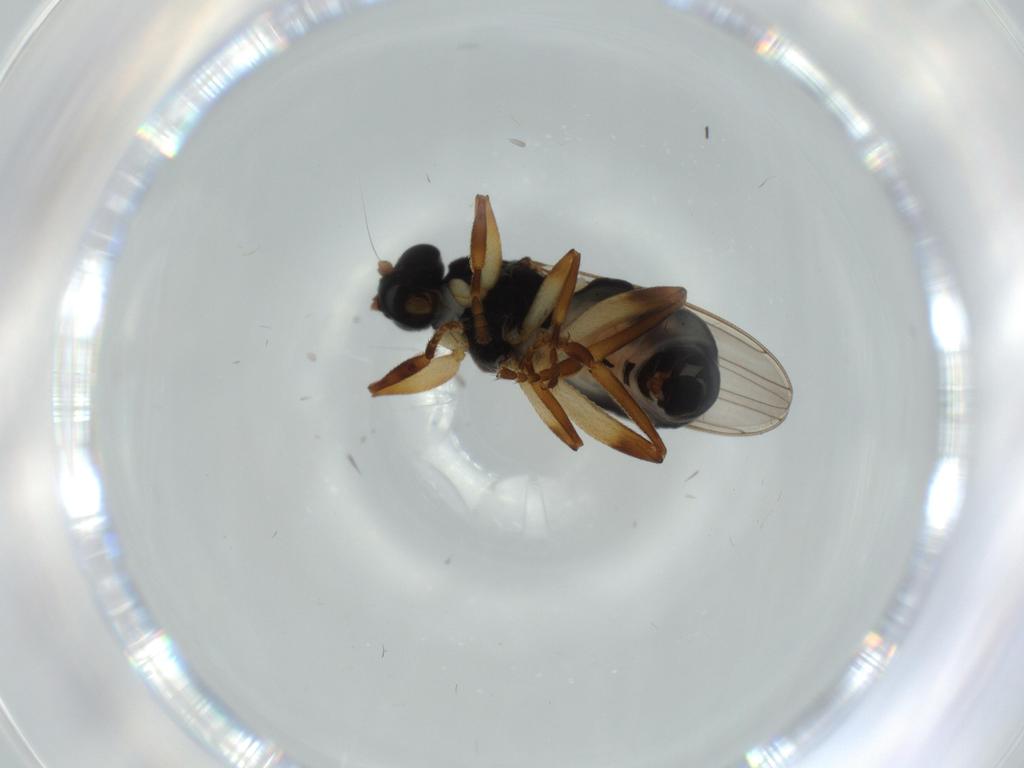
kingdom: Animalia
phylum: Arthropoda
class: Insecta
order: Diptera
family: Sphaeroceridae
